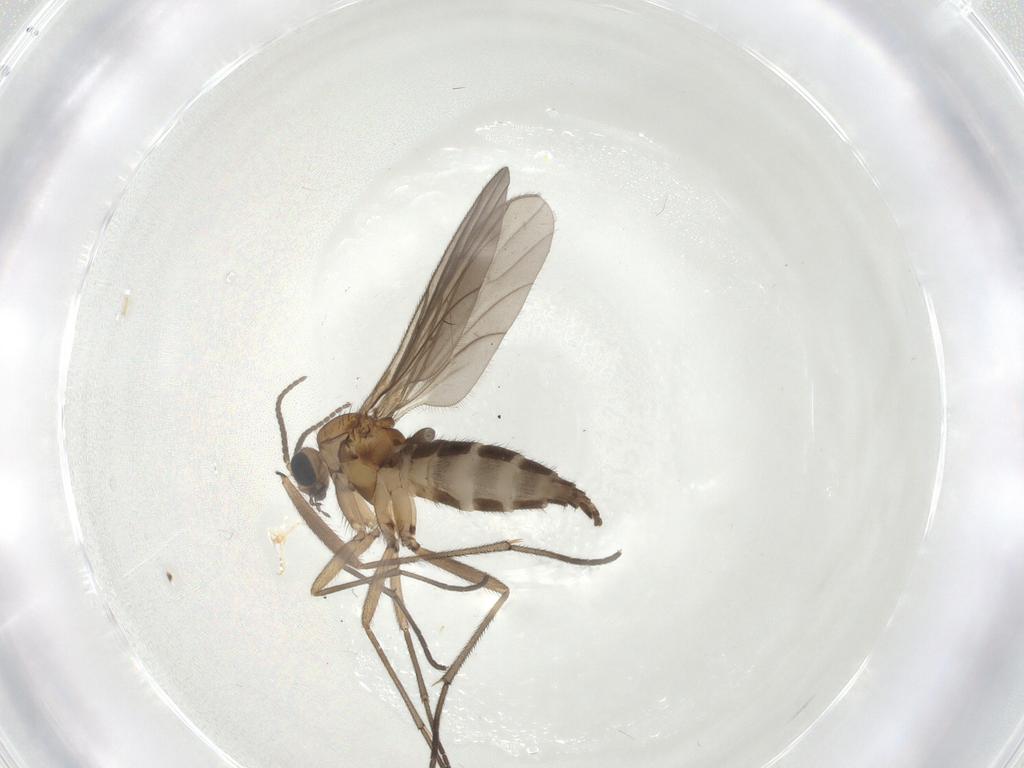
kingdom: Animalia
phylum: Arthropoda
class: Insecta
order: Diptera
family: Sciaridae
